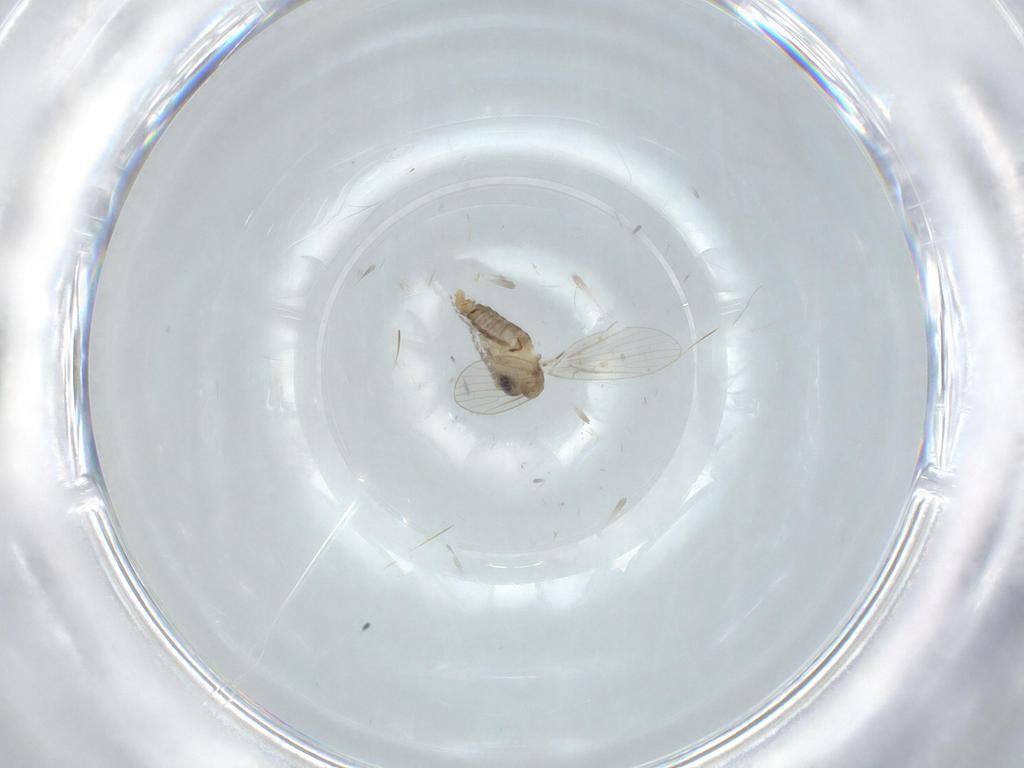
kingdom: Animalia
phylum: Arthropoda
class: Insecta
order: Diptera
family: Psychodidae
